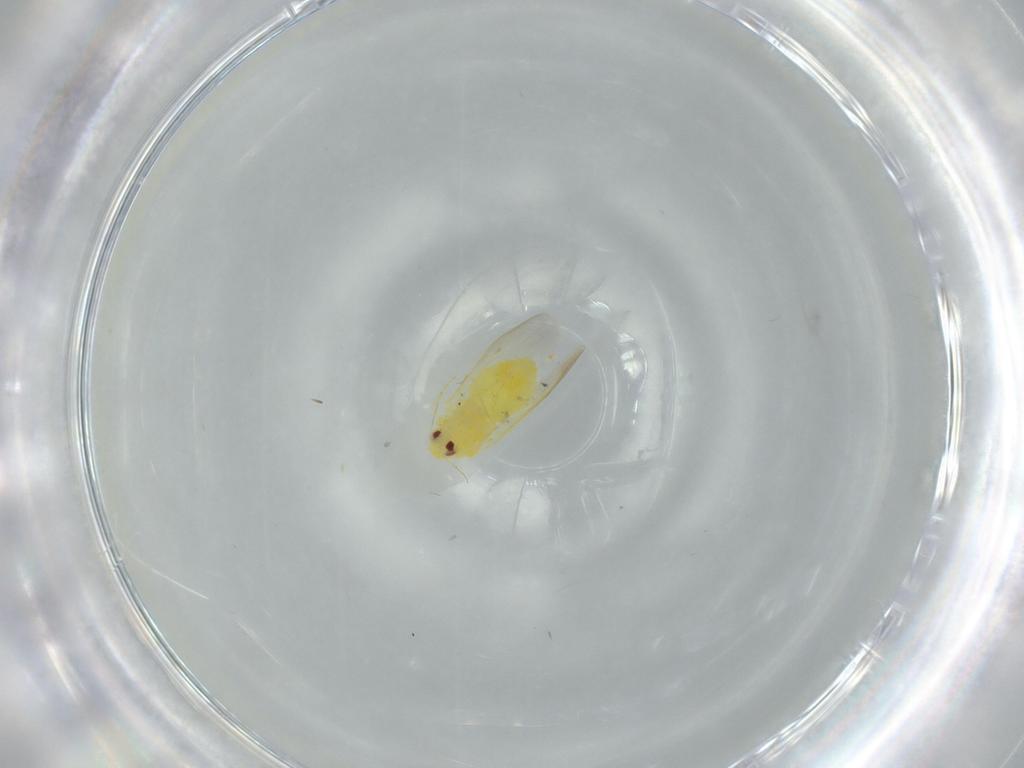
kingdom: Animalia
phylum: Arthropoda
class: Insecta
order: Hemiptera
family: Aleyrodidae
